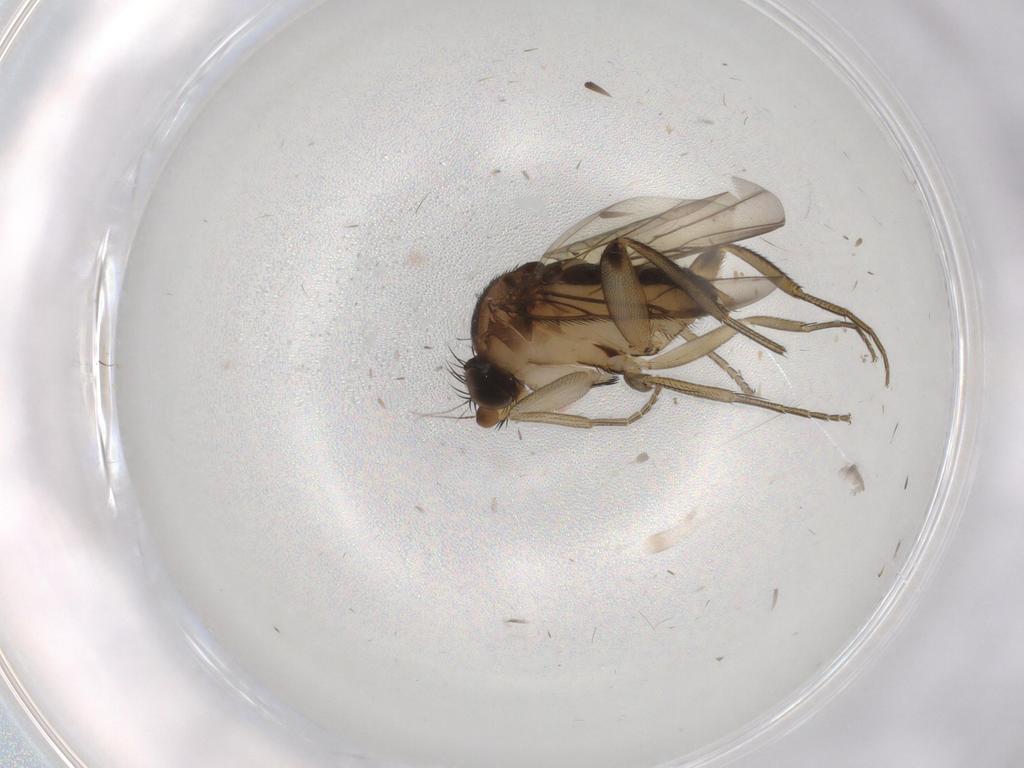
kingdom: Animalia
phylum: Arthropoda
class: Insecta
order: Diptera
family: Phoridae
